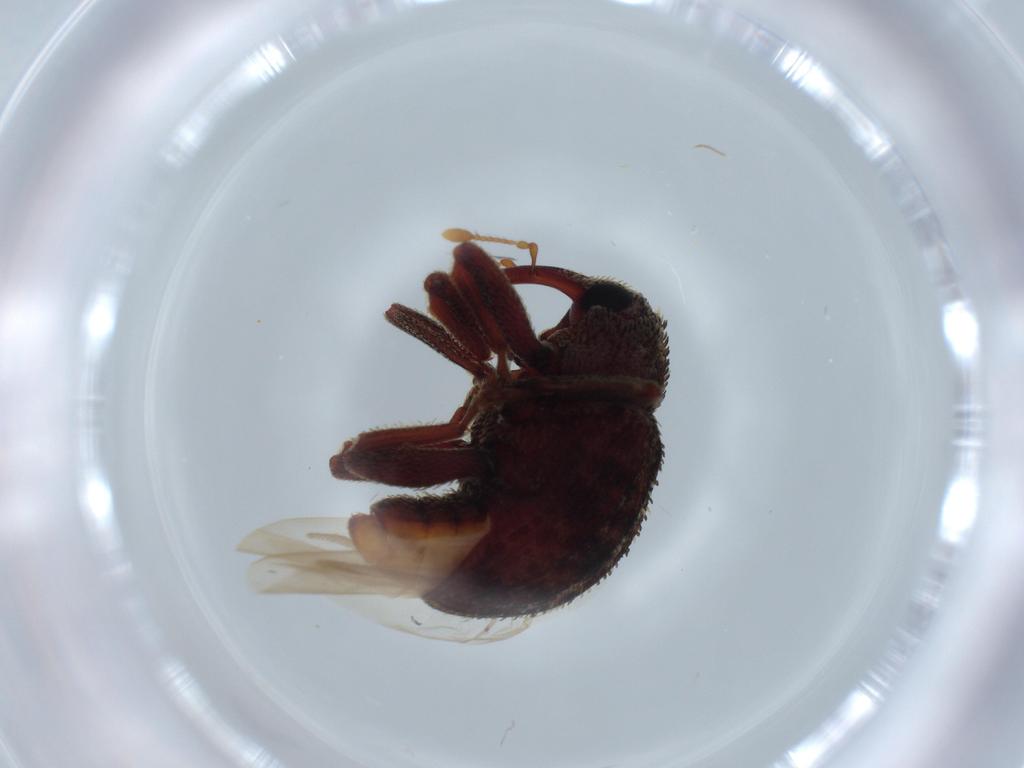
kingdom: Animalia
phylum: Arthropoda
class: Insecta
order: Coleoptera
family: Curculionidae
